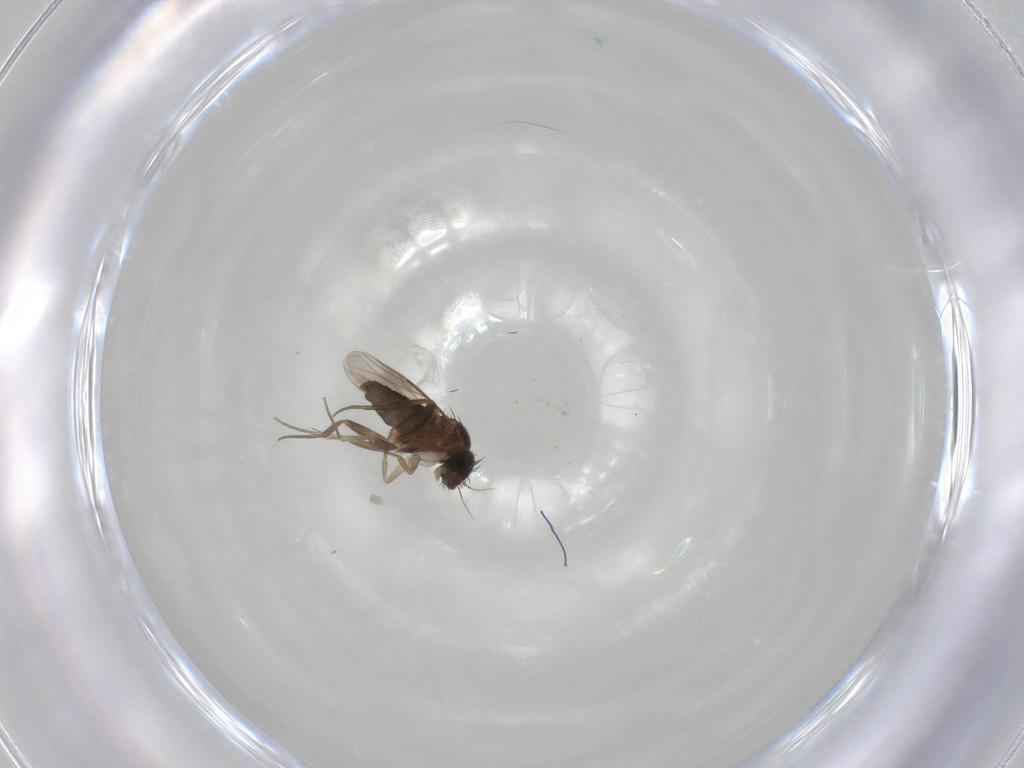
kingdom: Animalia
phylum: Arthropoda
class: Insecta
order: Diptera
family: Phoridae
